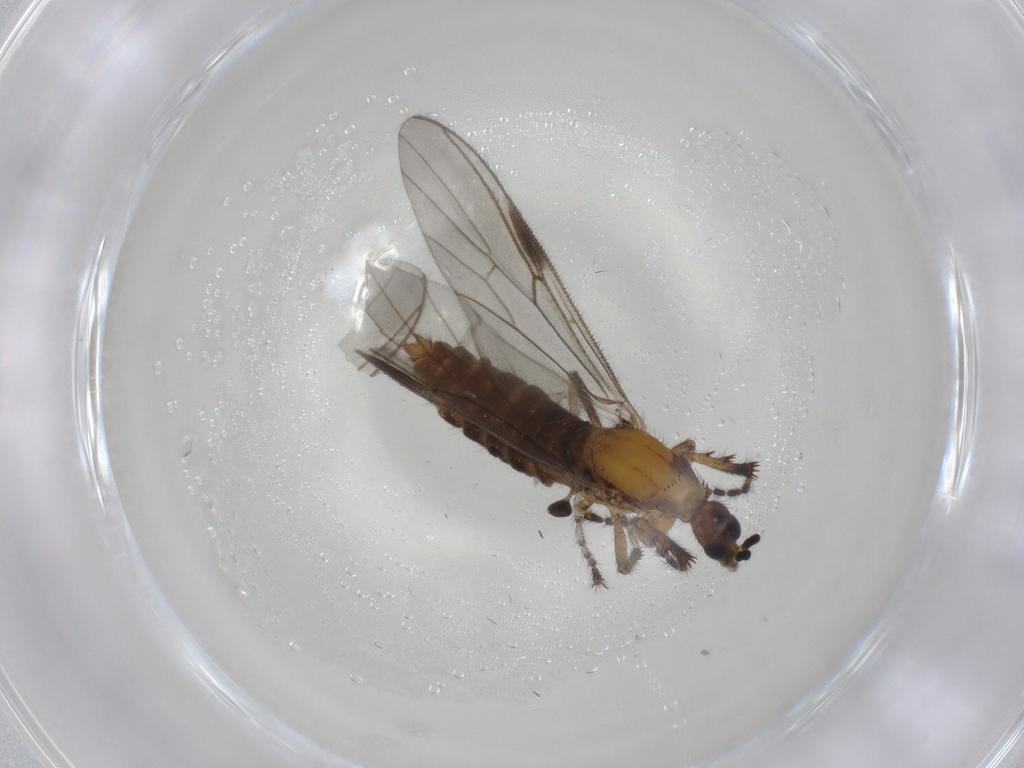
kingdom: Animalia
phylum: Arthropoda
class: Insecta
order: Diptera
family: Bibionidae
